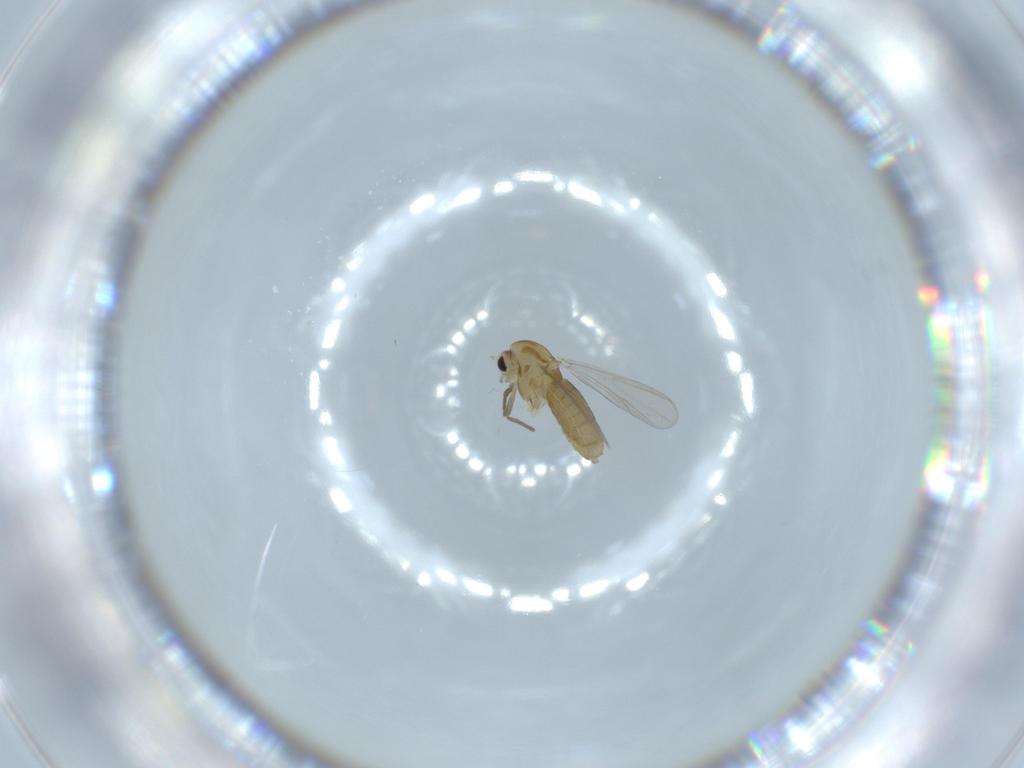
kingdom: Animalia
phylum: Arthropoda
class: Insecta
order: Diptera
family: Chironomidae
